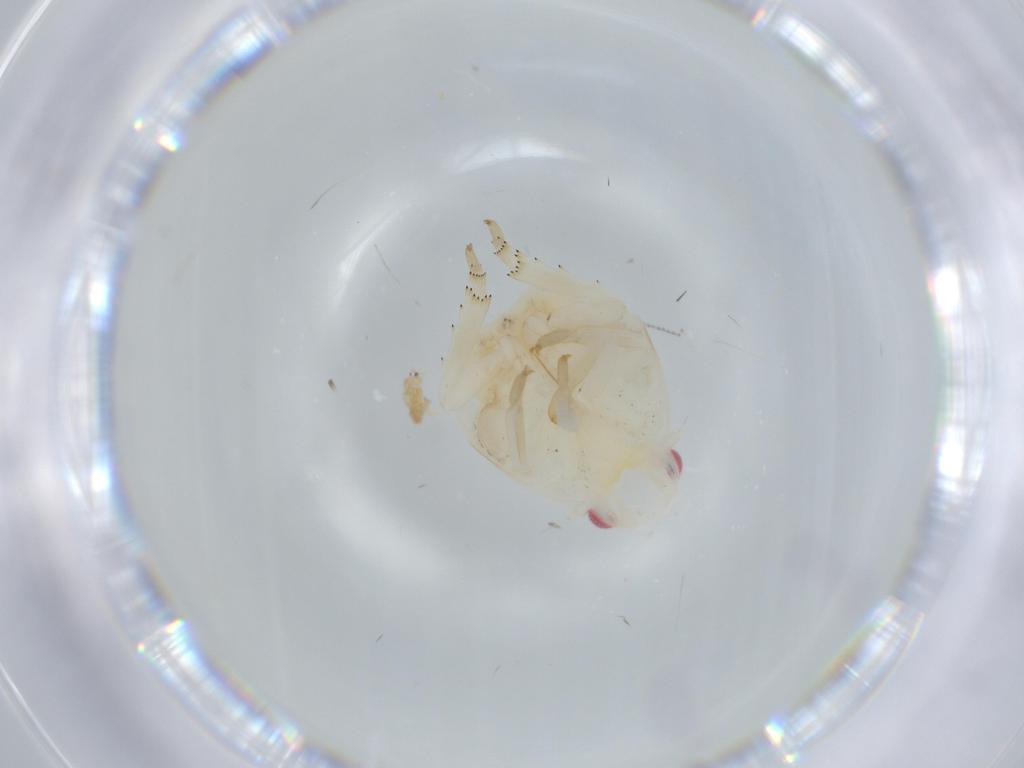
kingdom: Animalia
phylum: Arthropoda
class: Insecta
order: Hemiptera
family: Flatidae
